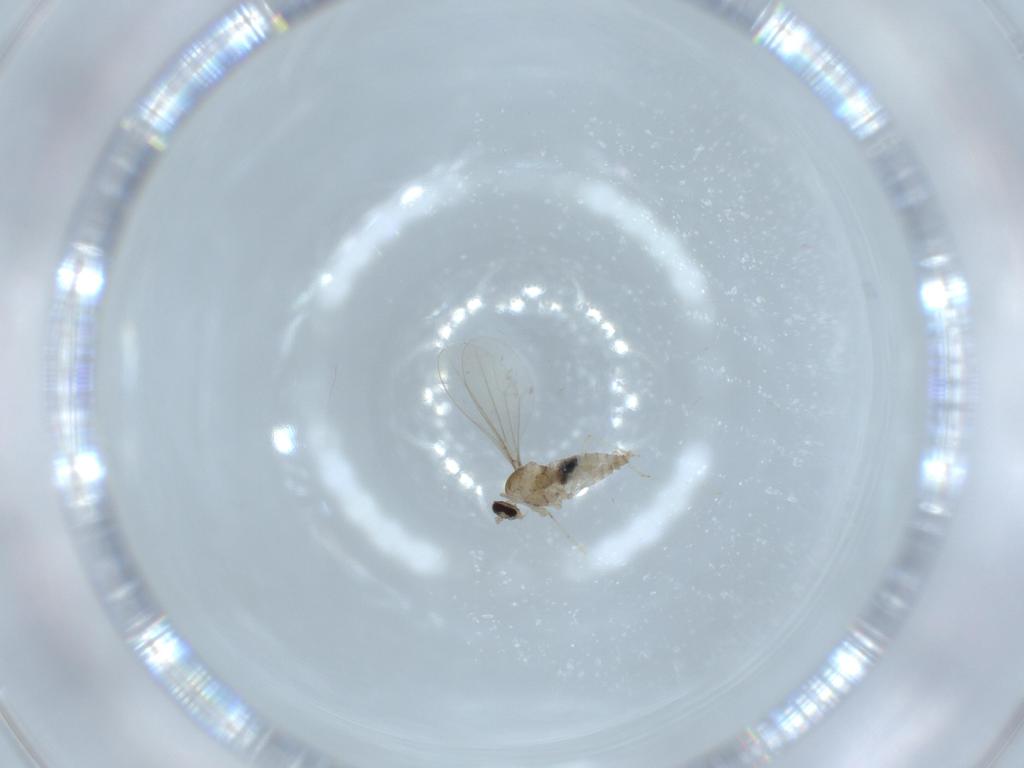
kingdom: Animalia
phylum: Arthropoda
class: Insecta
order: Diptera
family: Cecidomyiidae
